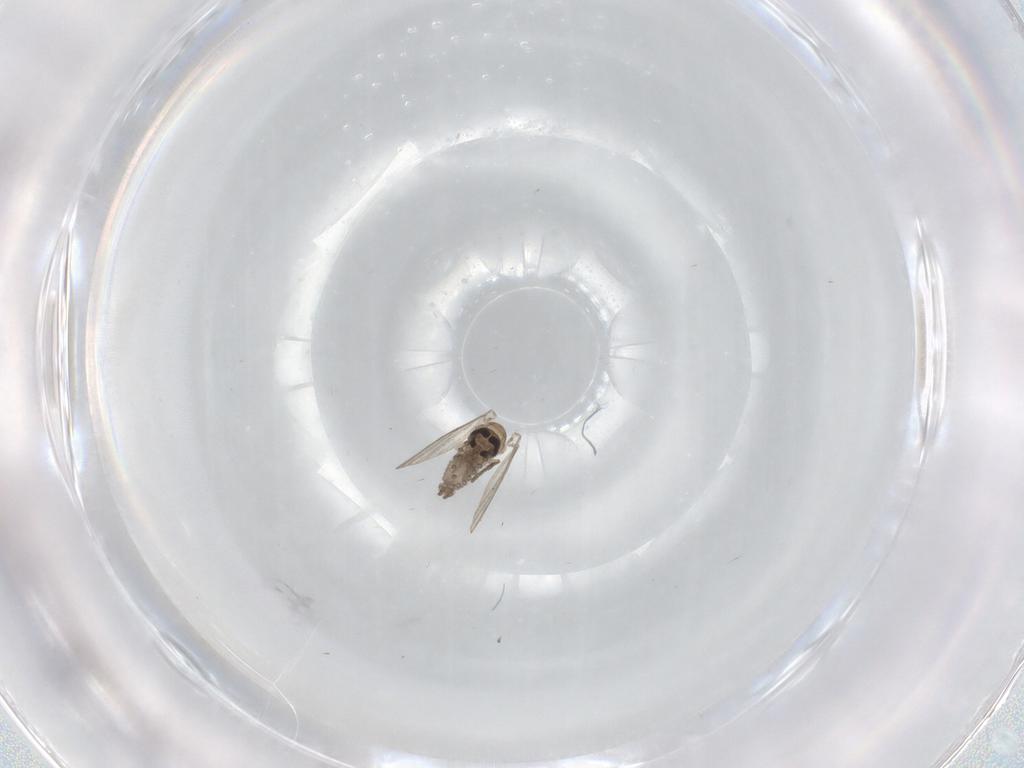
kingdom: Animalia
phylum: Arthropoda
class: Insecta
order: Diptera
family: Psychodidae
